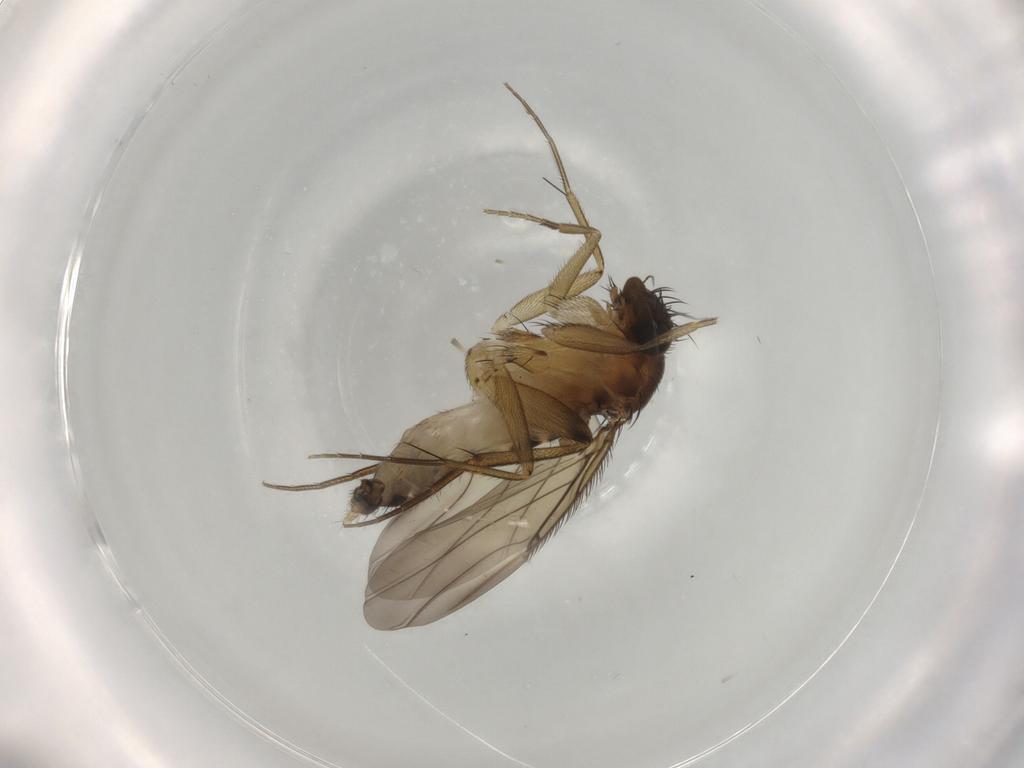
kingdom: Animalia
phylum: Arthropoda
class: Insecta
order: Diptera
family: Phoridae
